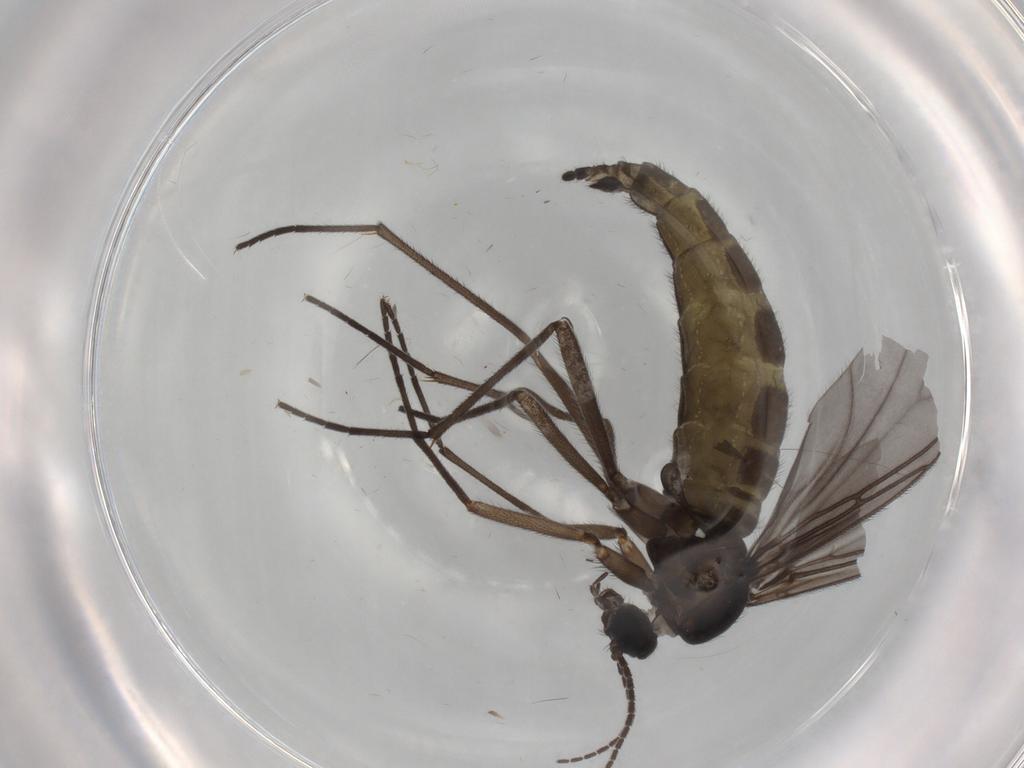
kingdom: Animalia
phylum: Arthropoda
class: Insecta
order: Diptera
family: Sciaridae
